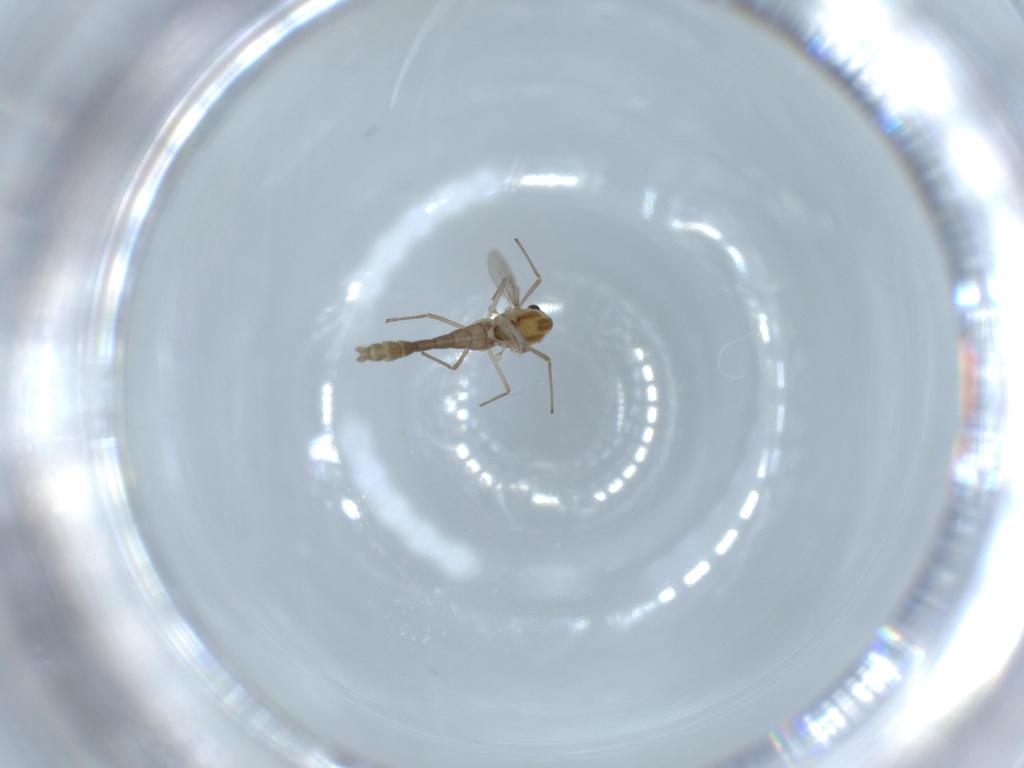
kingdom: Animalia
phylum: Arthropoda
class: Insecta
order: Diptera
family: Chironomidae
